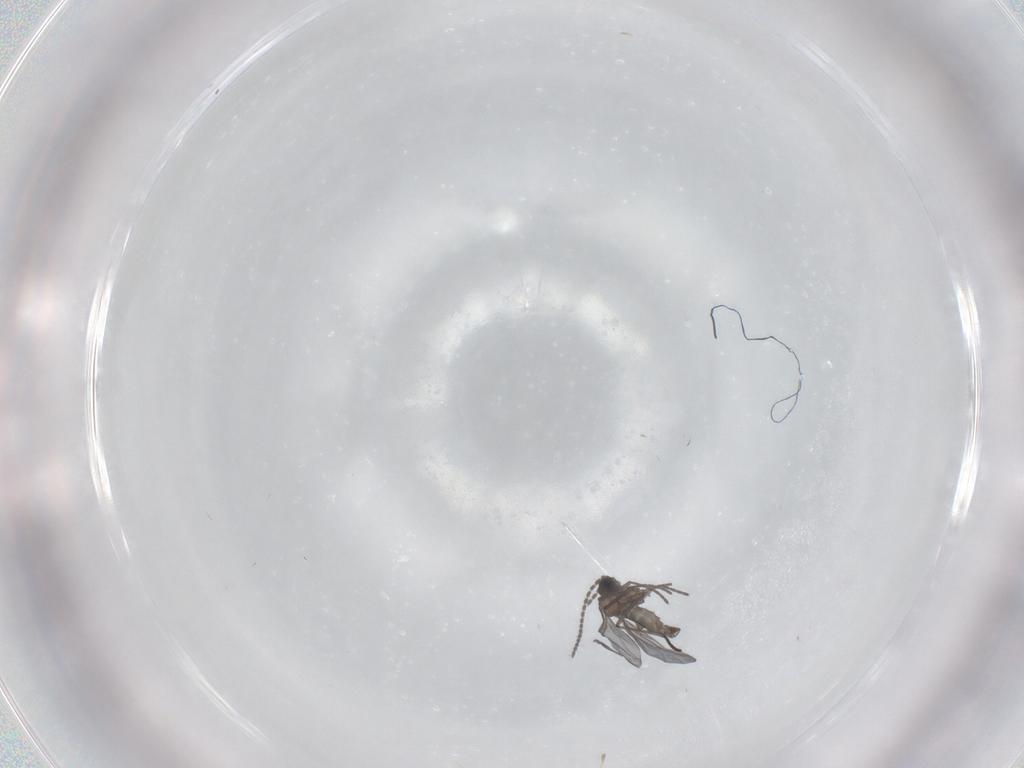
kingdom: Animalia
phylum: Arthropoda
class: Insecta
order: Diptera
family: Sciaridae
